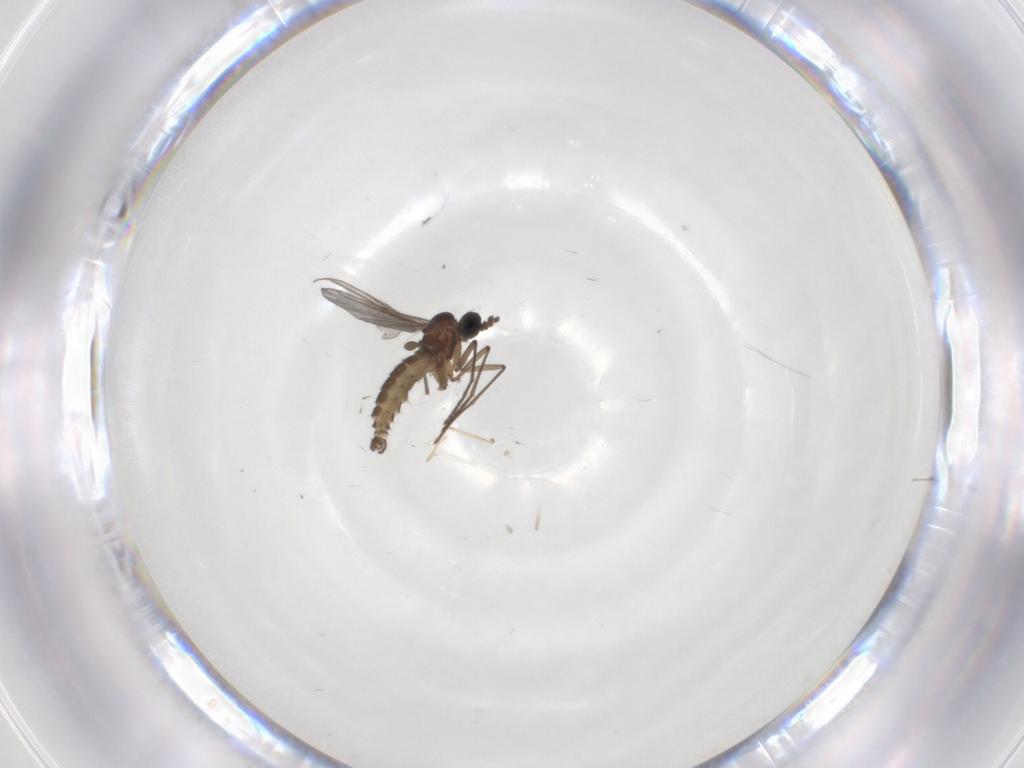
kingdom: Animalia
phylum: Arthropoda
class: Insecta
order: Diptera
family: Sciaridae
